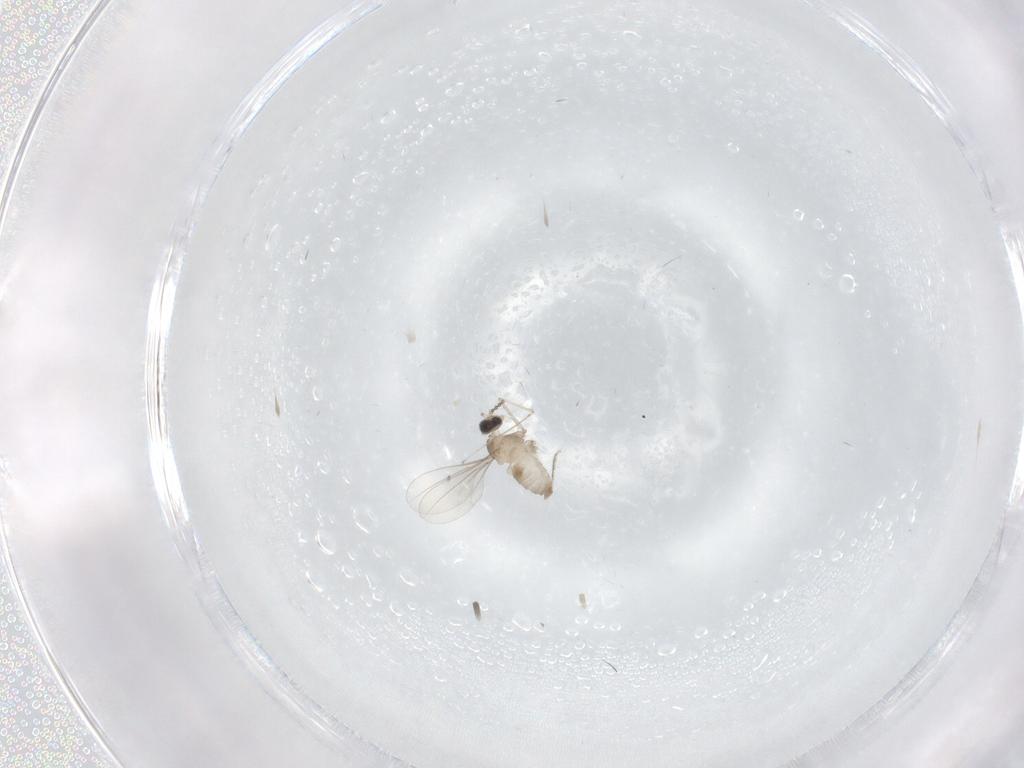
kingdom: Animalia
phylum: Arthropoda
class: Insecta
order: Diptera
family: Cecidomyiidae
